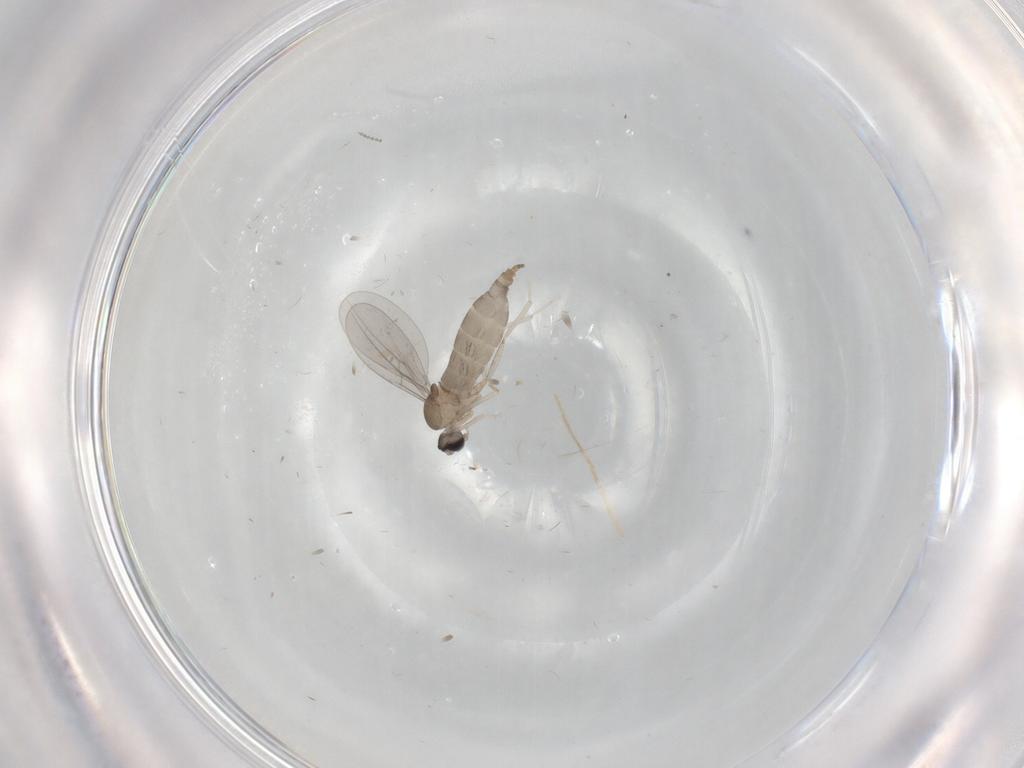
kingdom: Animalia
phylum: Arthropoda
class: Insecta
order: Diptera
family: Cecidomyiidae
